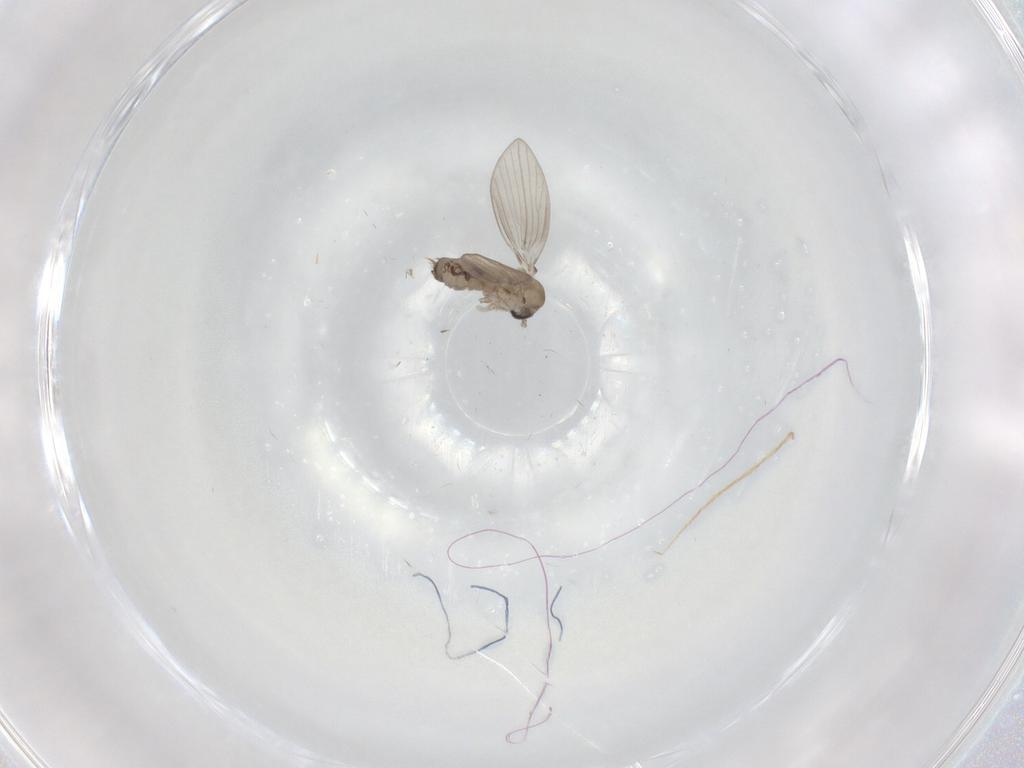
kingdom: Animalia
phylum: Arthropoda
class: Insecta
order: Diptera
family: Psychodidae
